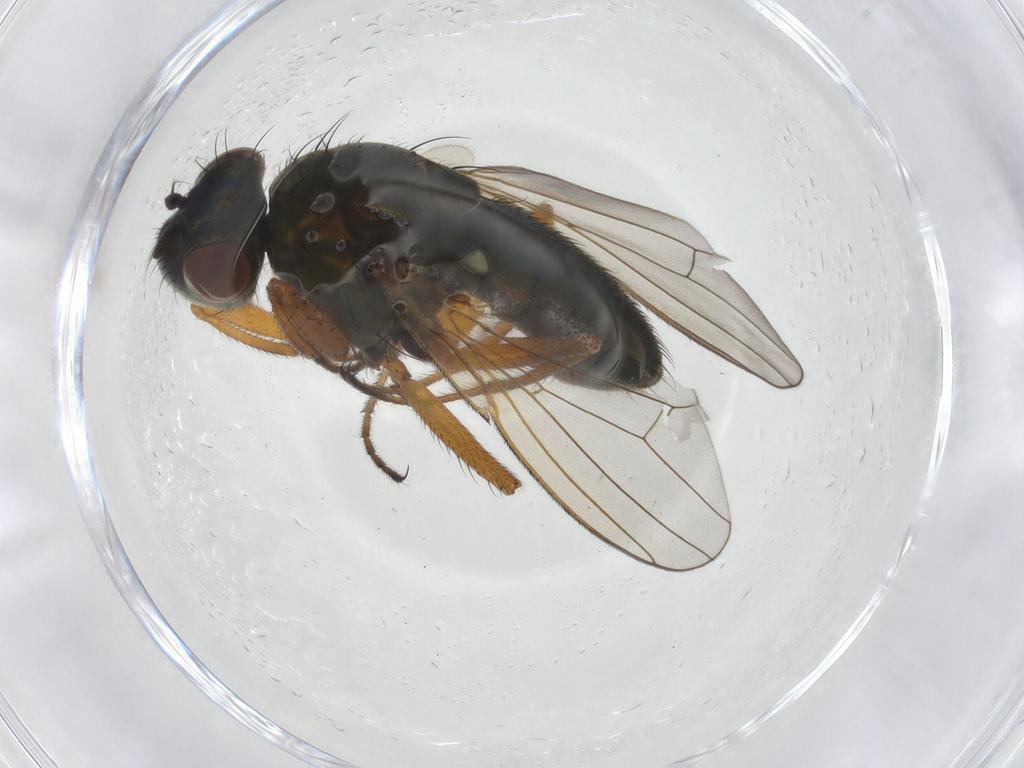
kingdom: Animalia
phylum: Arthropoda
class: Insecta
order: Diptera
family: Ephydridae
